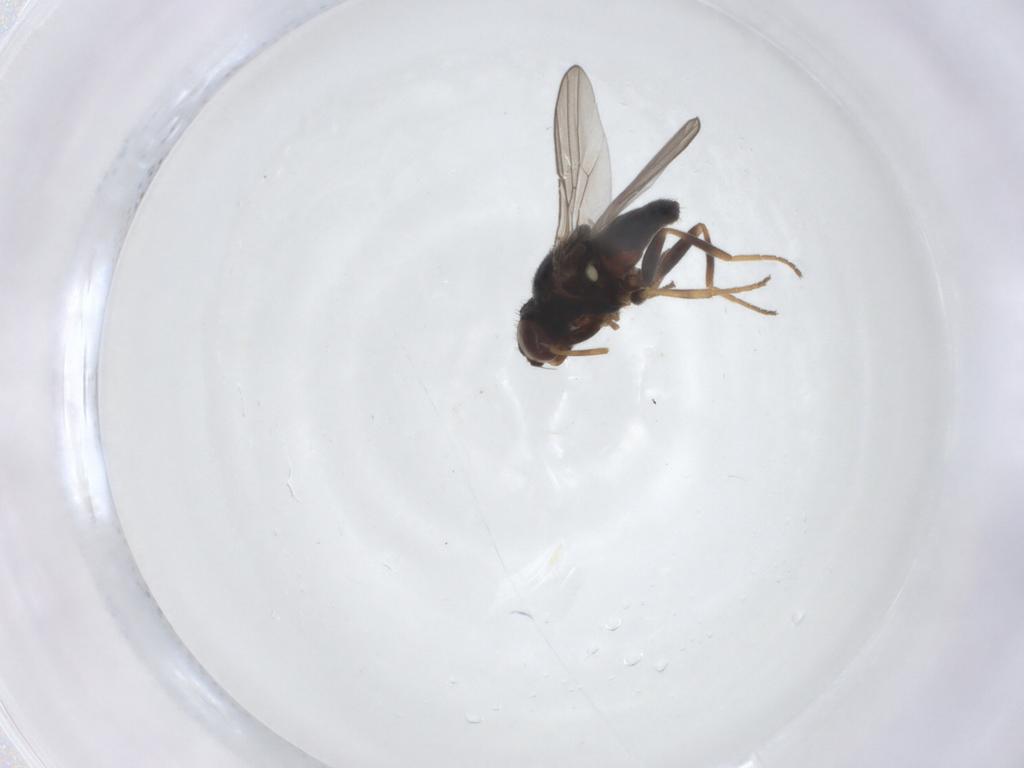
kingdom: Animalia
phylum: Arthropoda
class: Insecta
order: Diptera
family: Chloropidae
